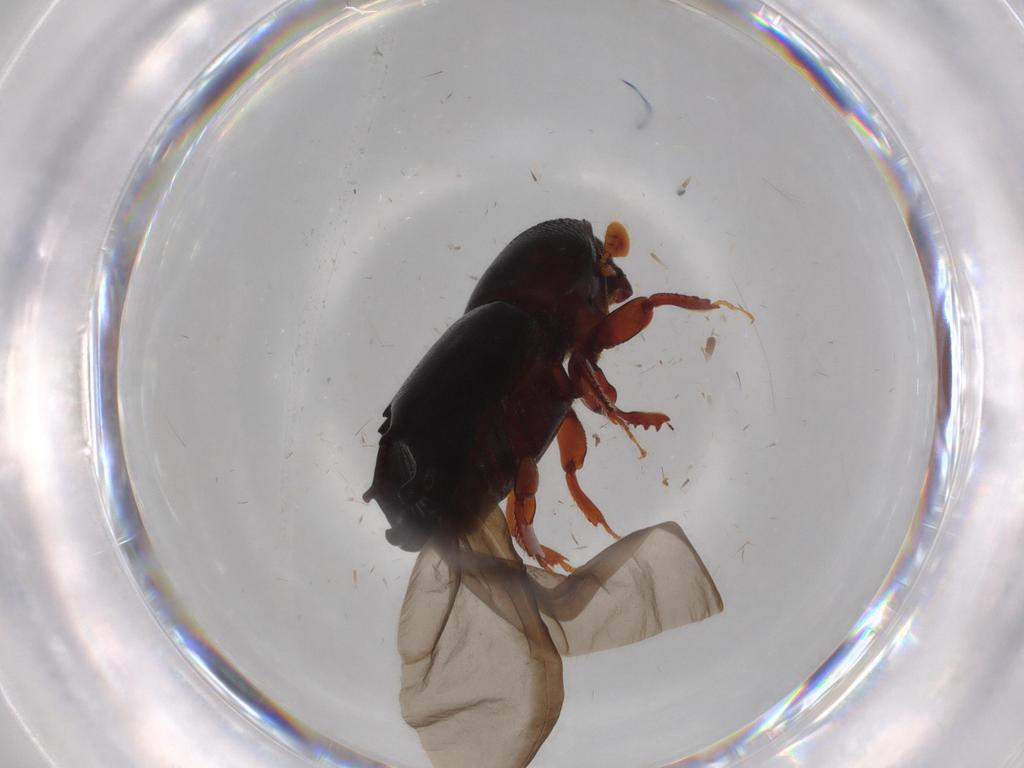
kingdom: Animalia
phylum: Arthropoda
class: Insecta
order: Coleoptera
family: Curculionidae
